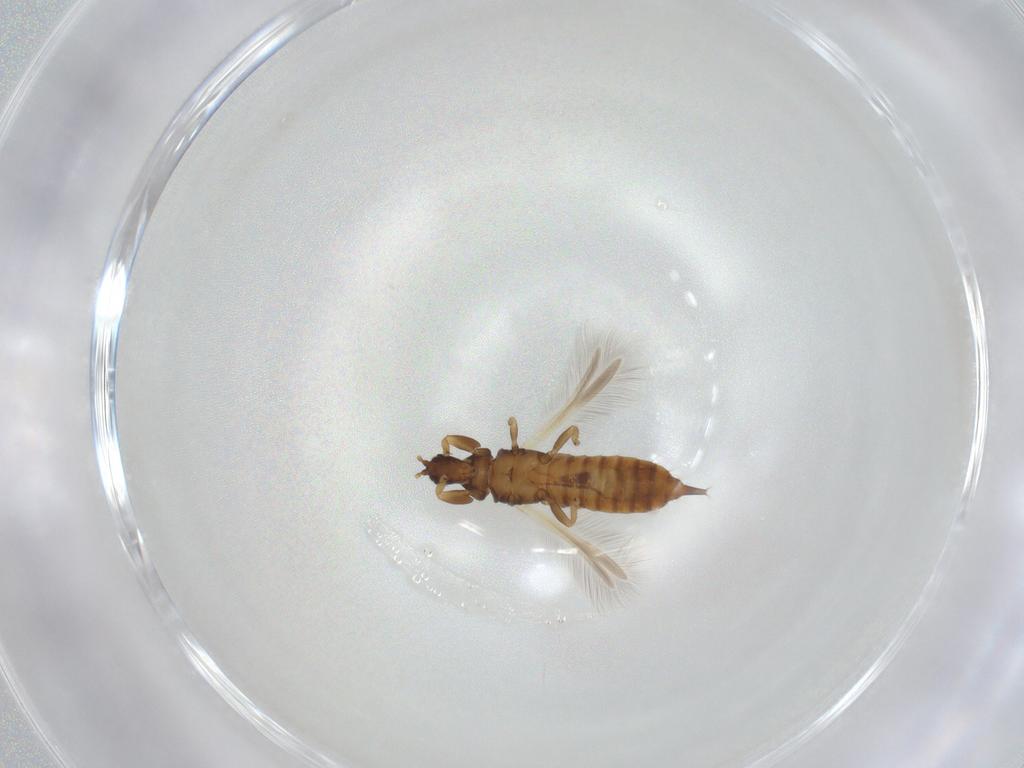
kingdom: Animalia
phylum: Arthropoda
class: Insecta
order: Thysanoptera
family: Phlaeothripidae
